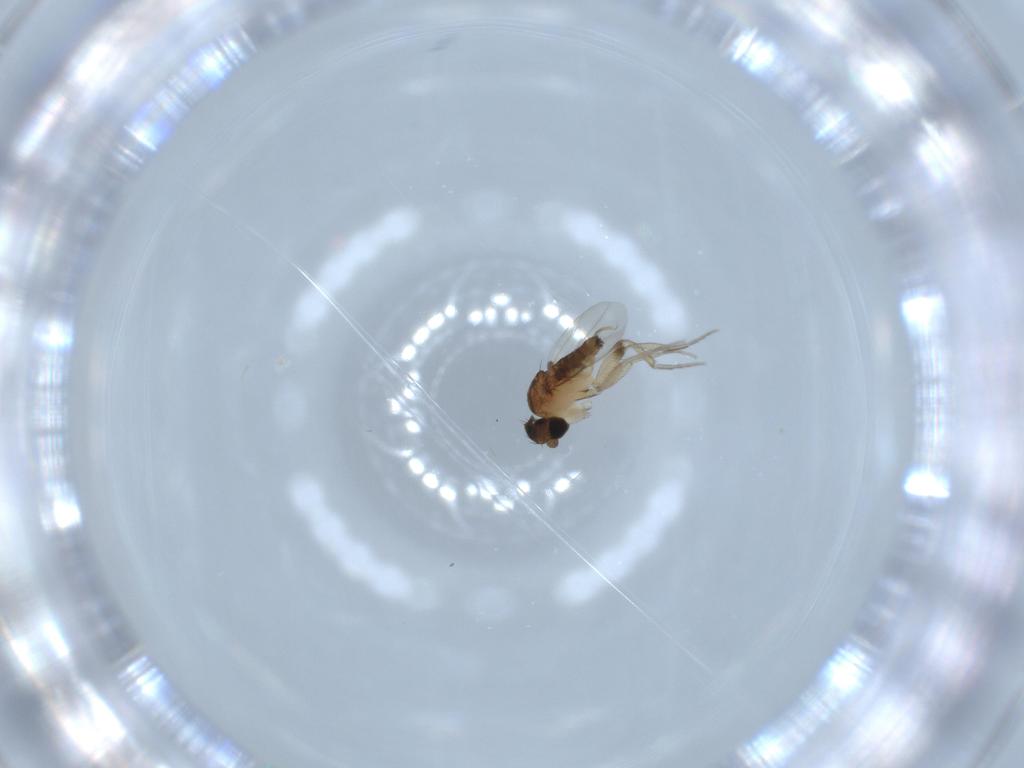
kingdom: Animalia
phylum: Arthropoda
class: Insecta
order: Diptera
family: Phoridae
